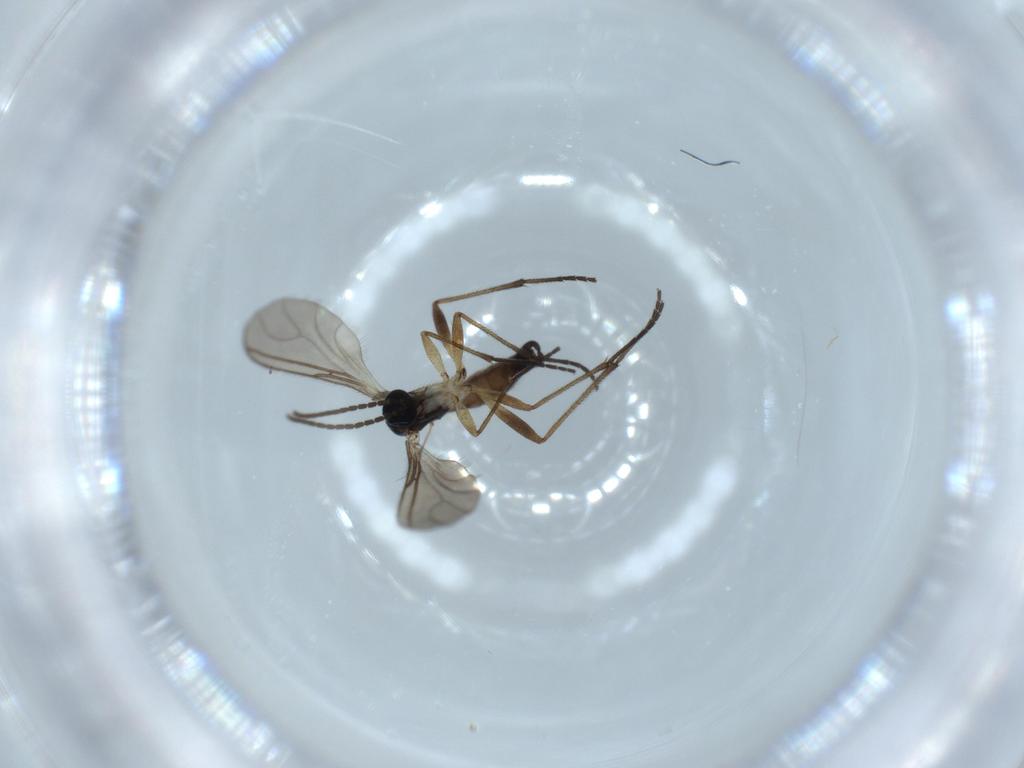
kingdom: Animalia
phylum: Arthropoda
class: Insecta
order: Diptera
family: Sciaridae
